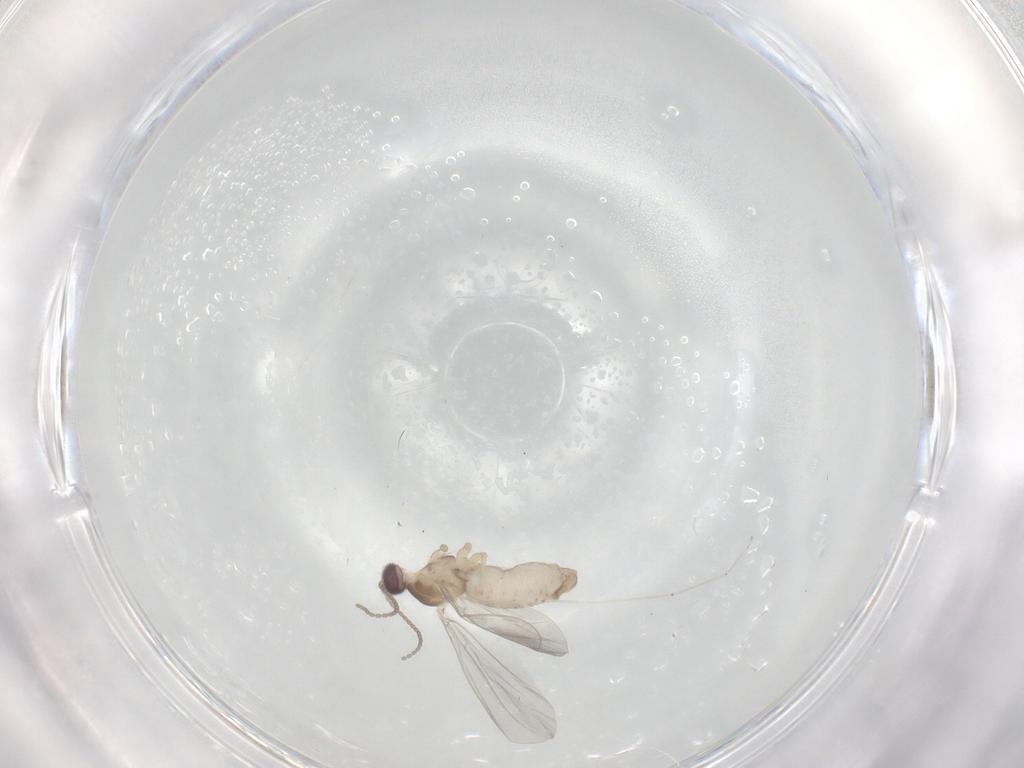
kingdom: Animalia
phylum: Arthropoda
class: Insecta
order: Diptera
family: Cecidomyiidae
